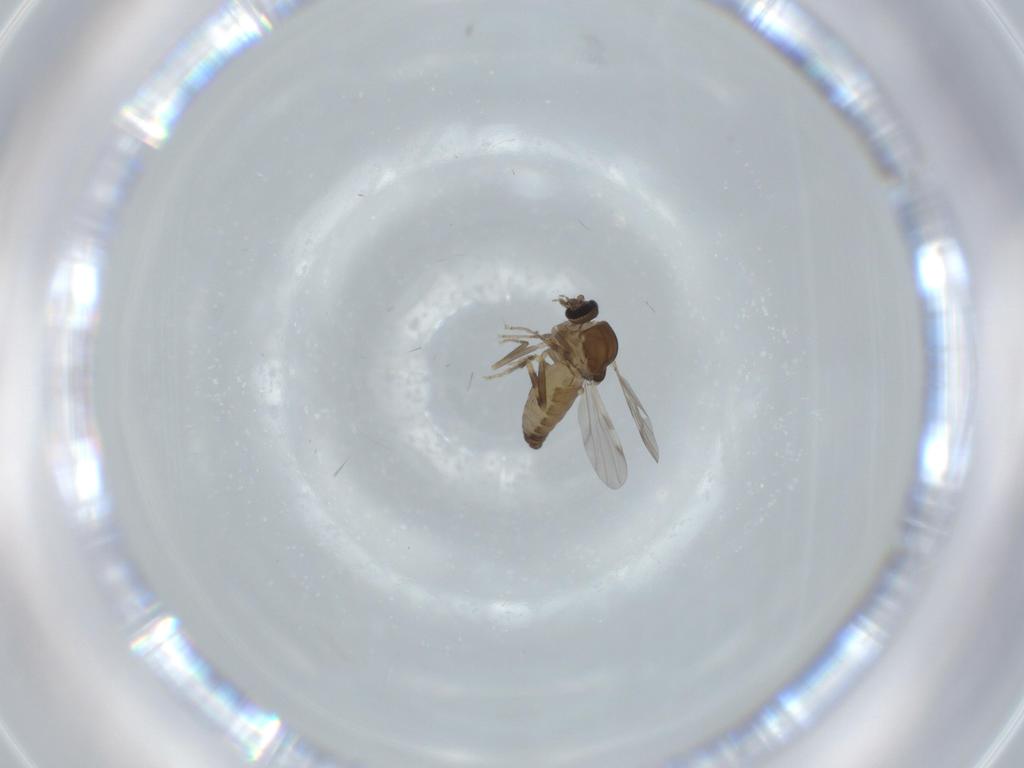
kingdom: Animalia
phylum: Arthropoda
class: Insecta
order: Diptera
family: Ceratopogonidae
